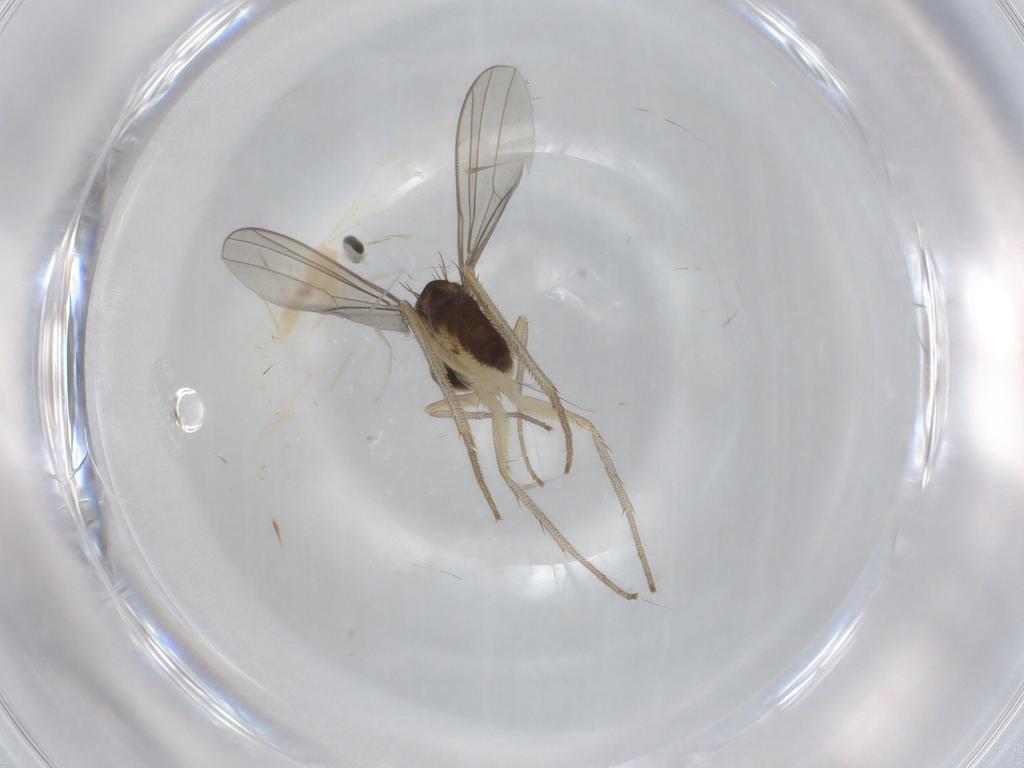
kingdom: Animalia
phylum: Arthropoda
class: Insecta
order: Diptera
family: Dolichopodidae
